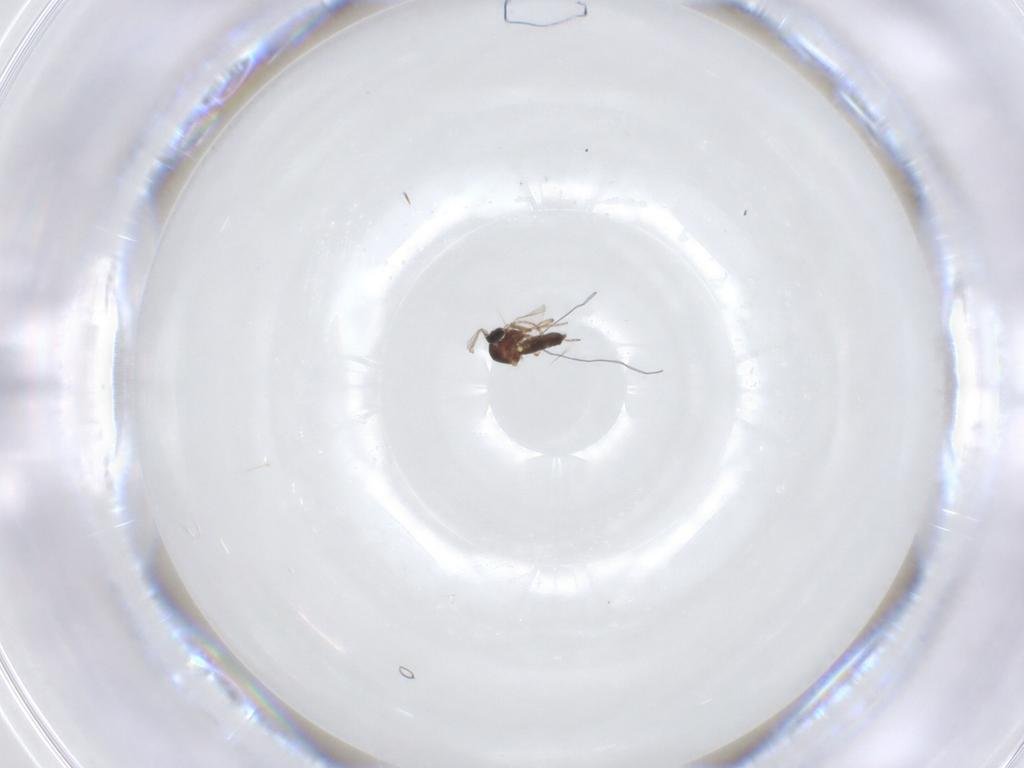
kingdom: Animalia
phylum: Arthropoda
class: Insecta
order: Diptera
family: Ceratopogonidae
